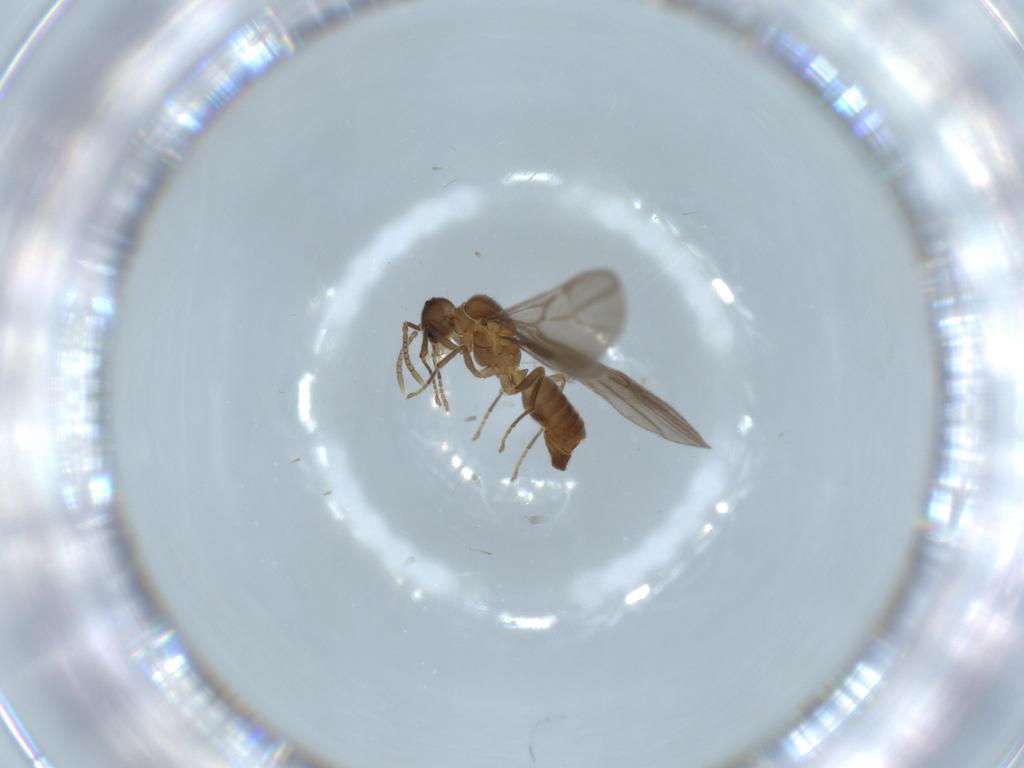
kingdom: Animalia
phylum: Arthropoda
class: Insecta
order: Hymenoptera
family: Formicidae
